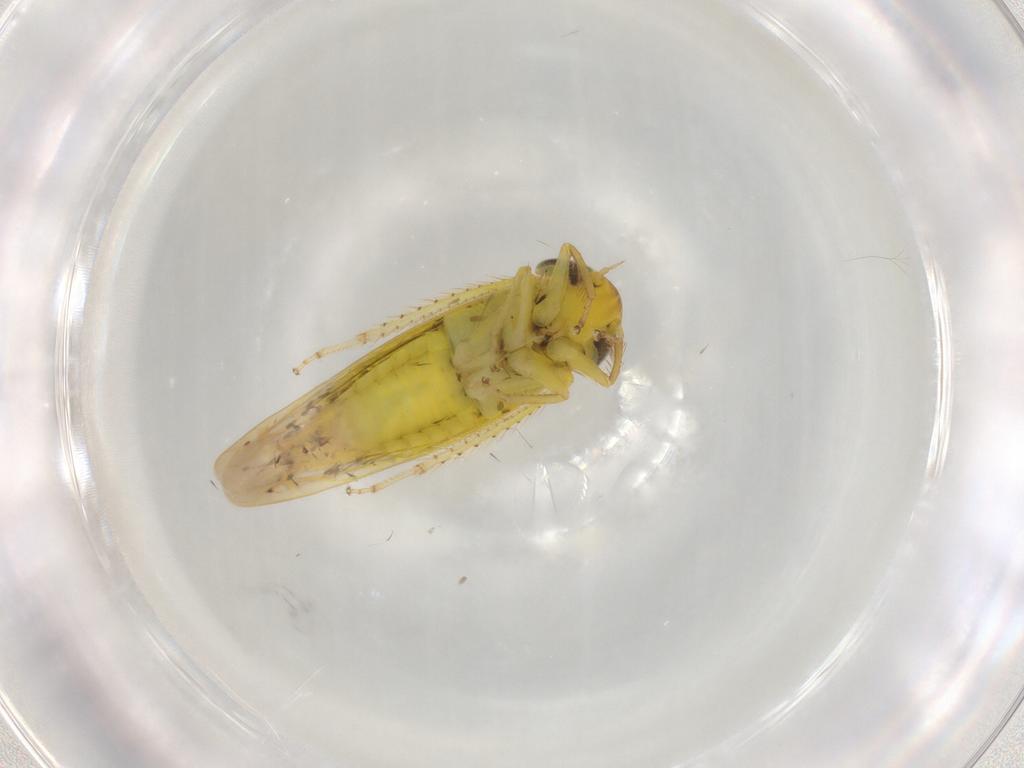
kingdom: Animalia
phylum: Arthropoda
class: Insecta
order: Hemiptera
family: Cicadellidae
